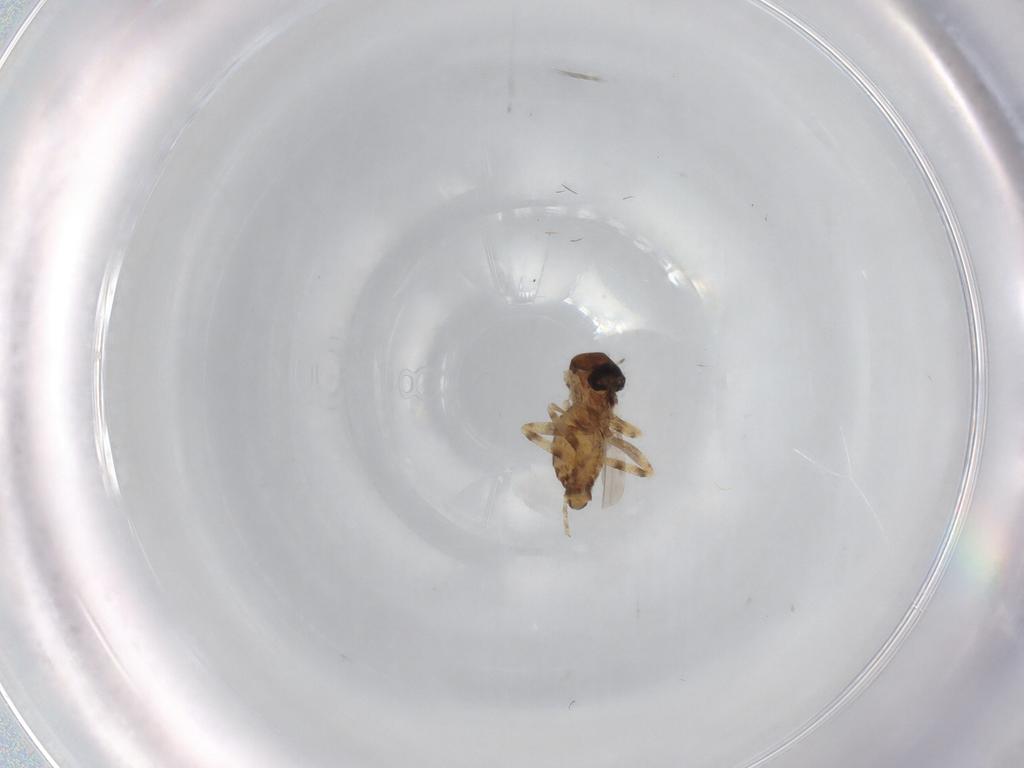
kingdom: Animalia
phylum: Arthropoda
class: Insecta
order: Diptera
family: Ceratopogonidae
